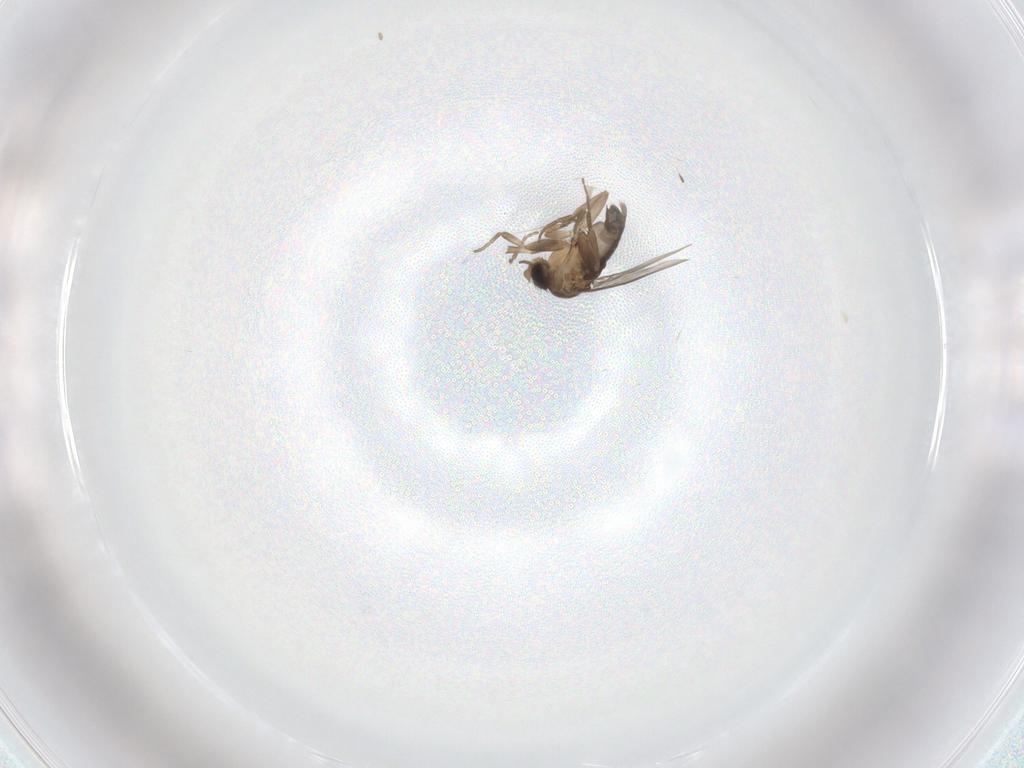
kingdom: Animalia
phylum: Arthropoda
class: Insecta
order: Diptera
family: Phoridae
